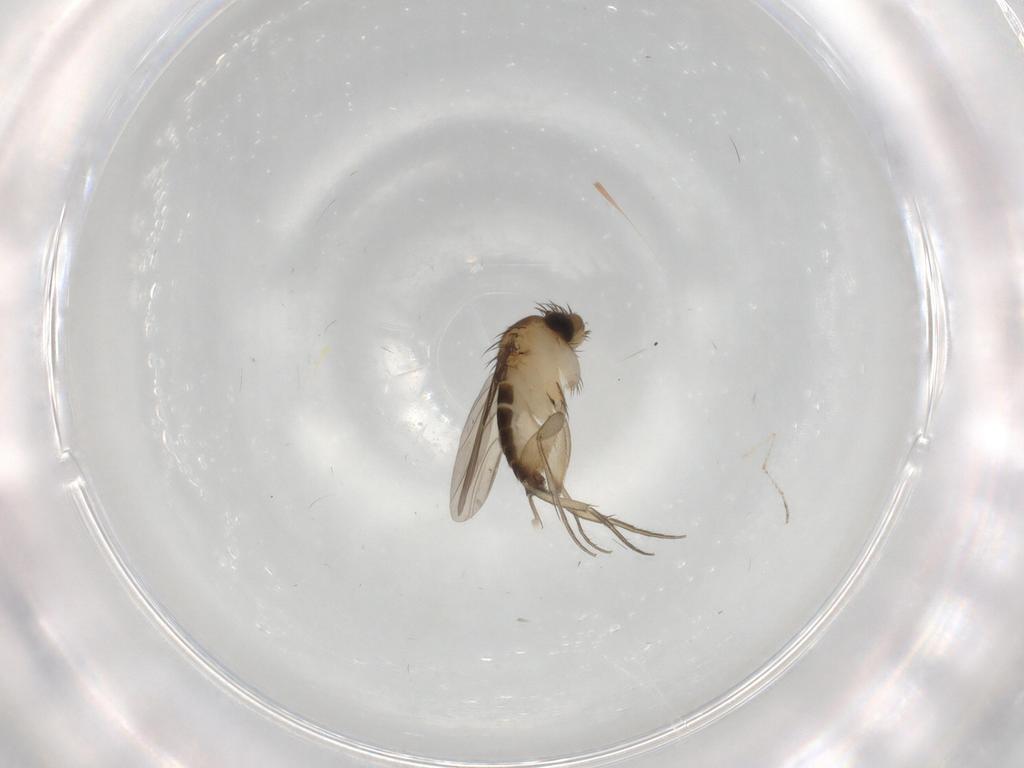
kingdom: Animalia
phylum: Arthropoda
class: Insecta
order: Diptera
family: Phoridae
